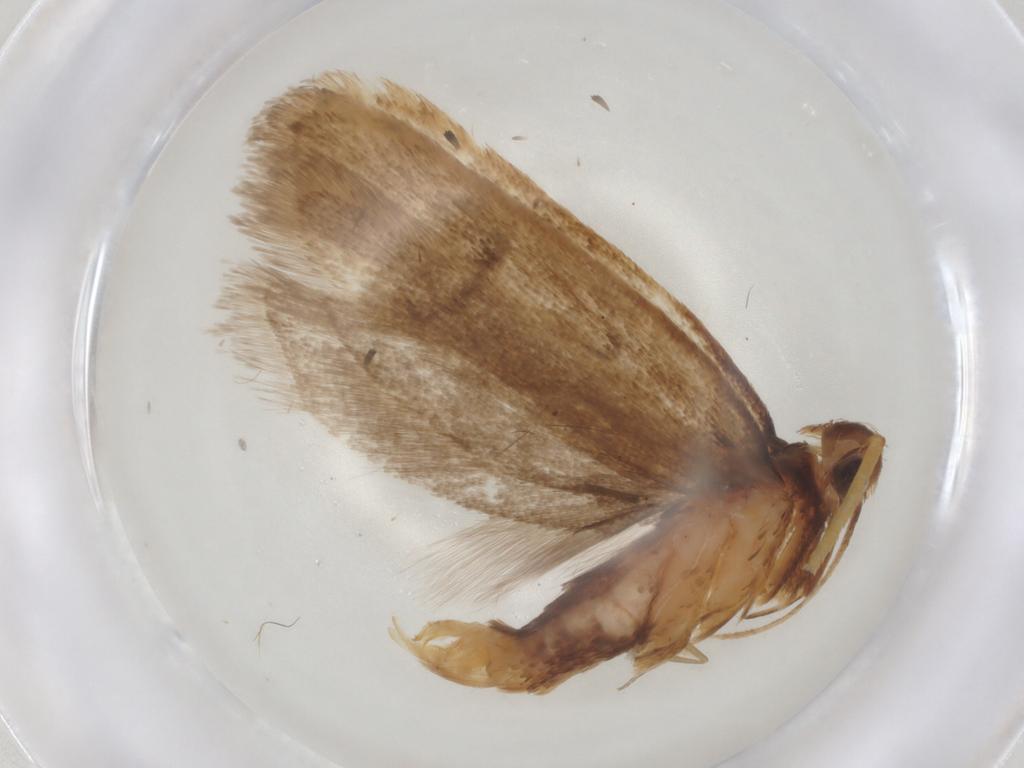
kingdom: Animalia
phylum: Arthropoda
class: Insecta
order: Lepidoptera
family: Lecithoceridae
